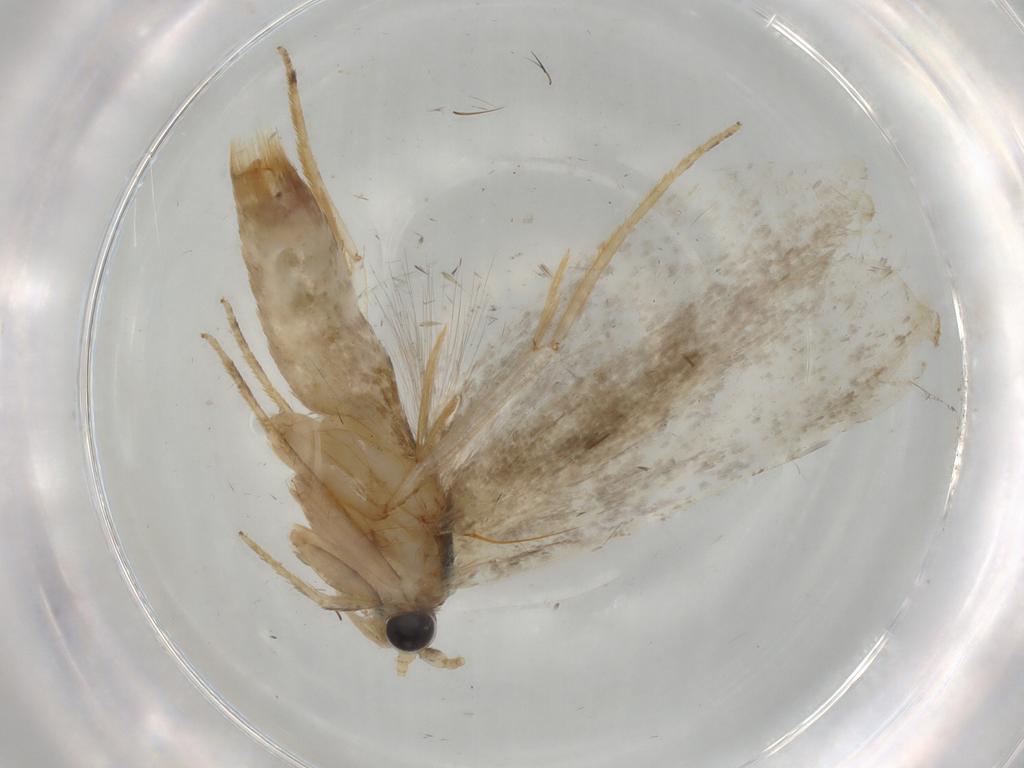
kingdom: Animalia
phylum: Arthropoda
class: Insecta
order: Lepidoptera
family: Tineidae
